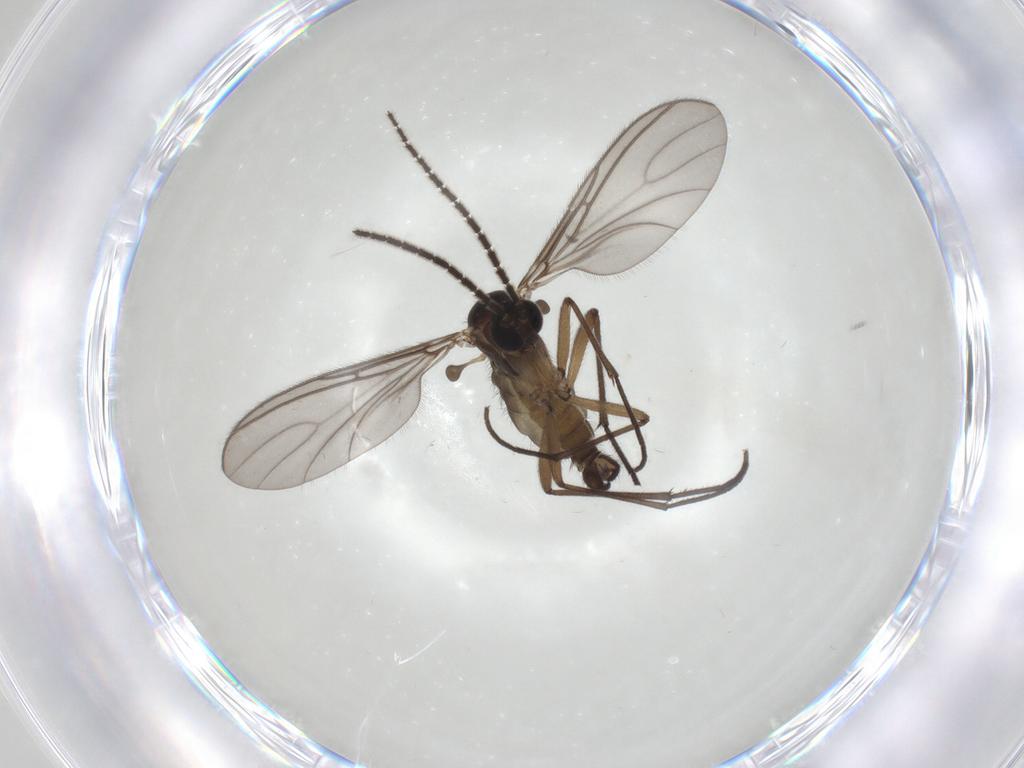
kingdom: Animalia
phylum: Arthropoda
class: Insecta
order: Diptera
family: Sciaridae
